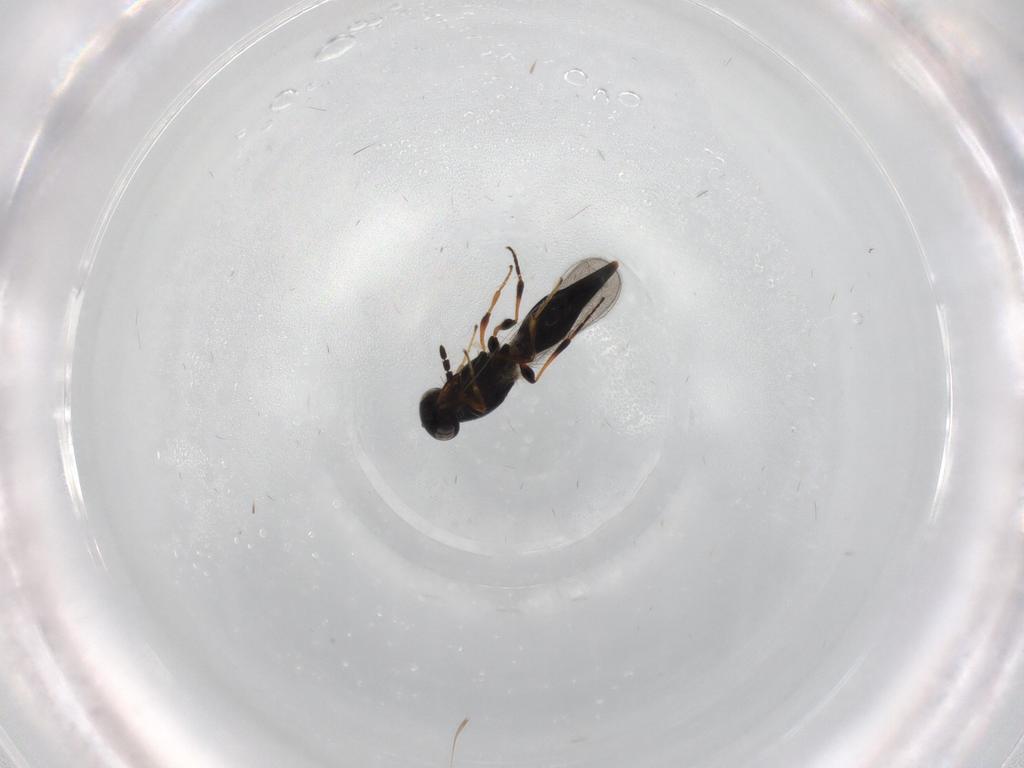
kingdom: Animalia
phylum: Arthropoda
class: Insecta
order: Hymenoptera
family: Platygastridae
